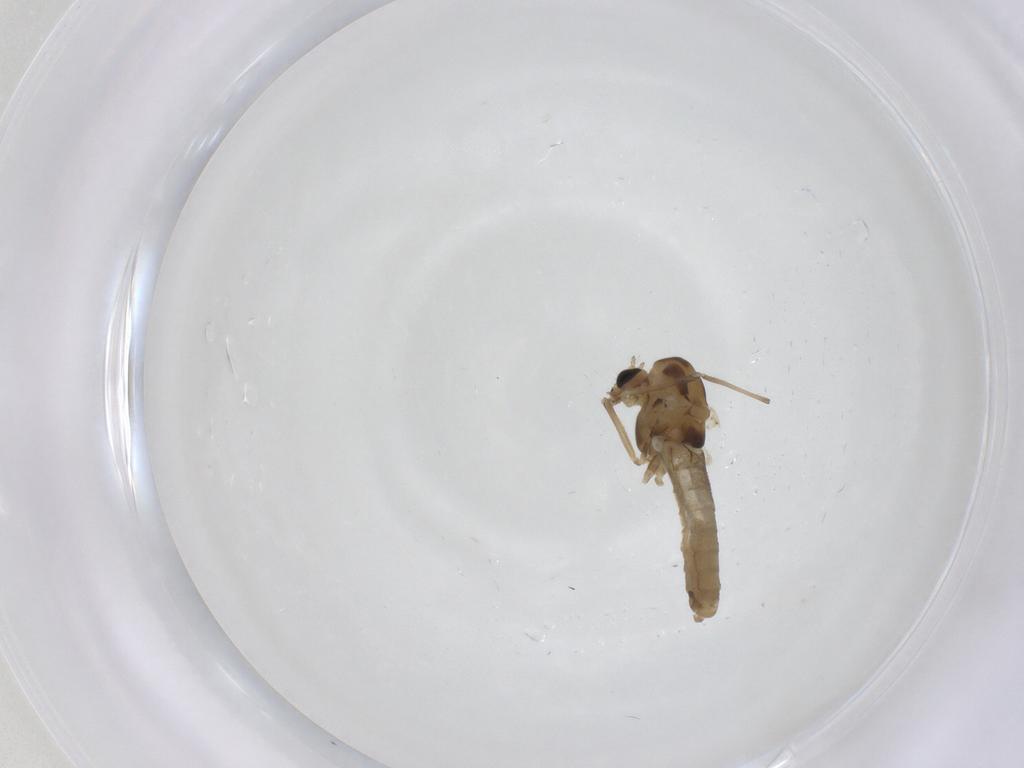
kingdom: Animalia
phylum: Arthropoda
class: Insecta
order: Diptera
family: Chironomidae
